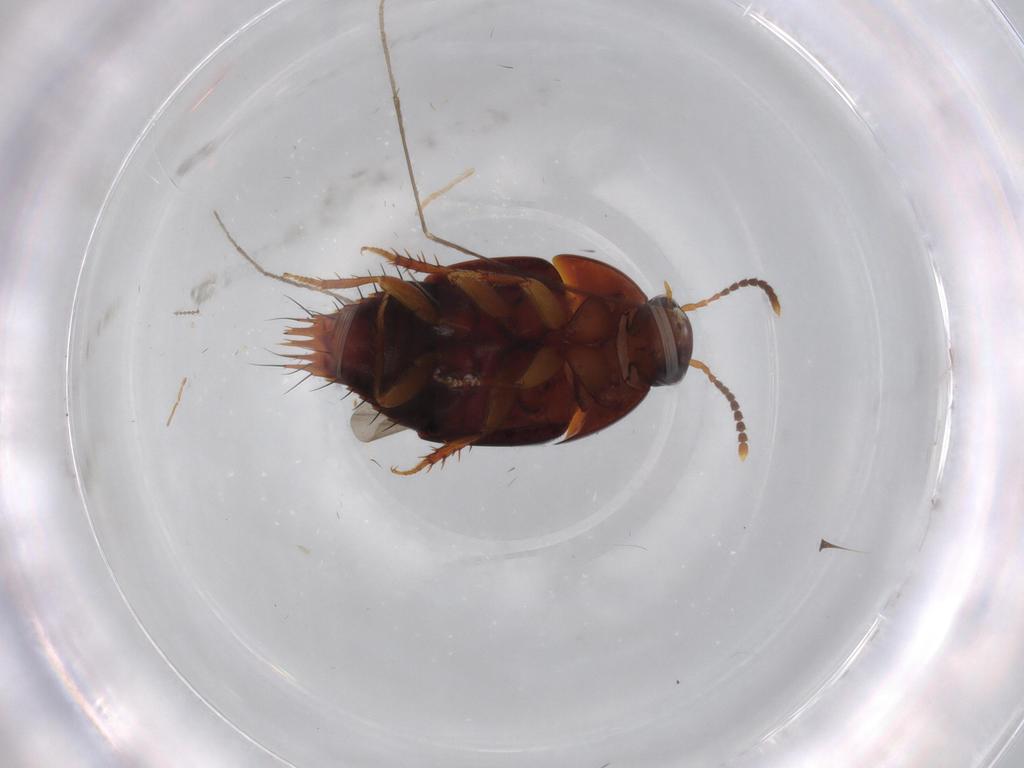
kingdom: Animalia
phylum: Arthropoda
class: Insecta
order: Coleoptera
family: Staphylinidae
